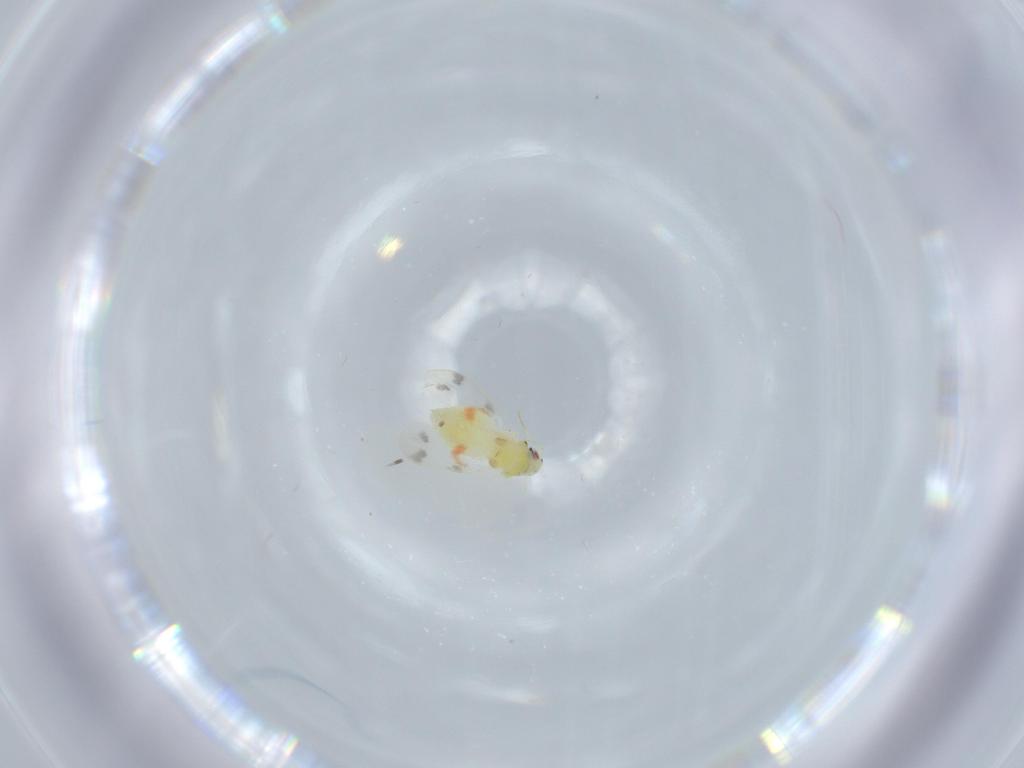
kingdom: Animalia
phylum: Arthropoda
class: Insecta
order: Hemiptera
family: Aleyrodidae
